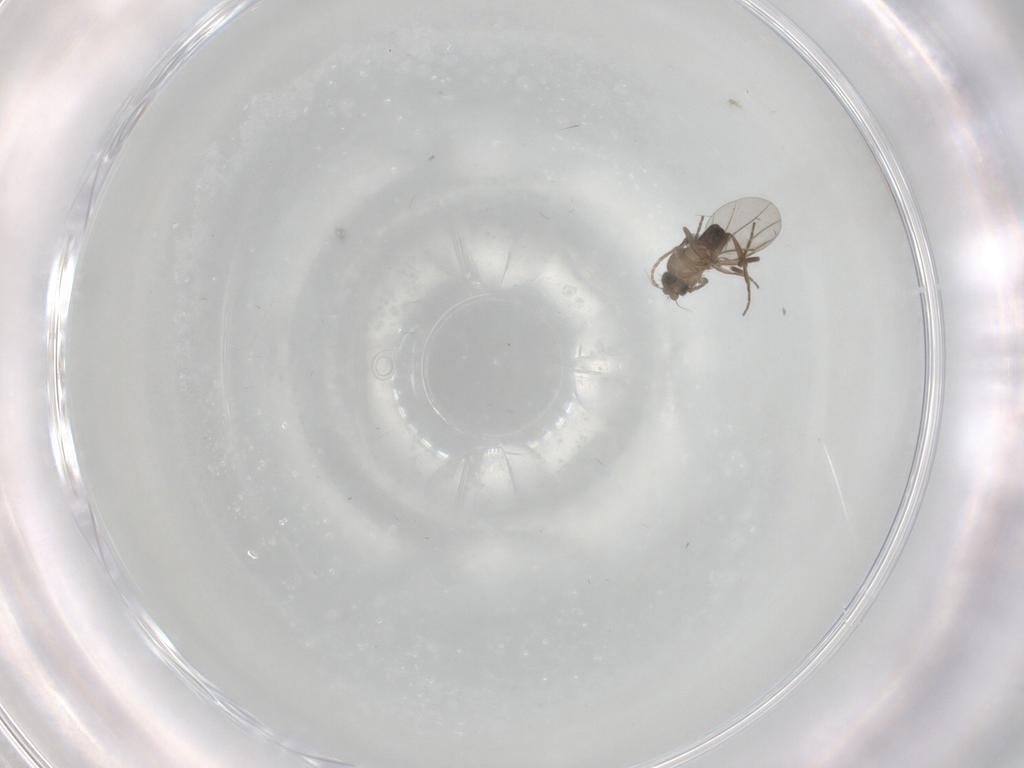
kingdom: Animalia
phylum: Arthropoda
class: Insecta
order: Diptera
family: Phoridae
